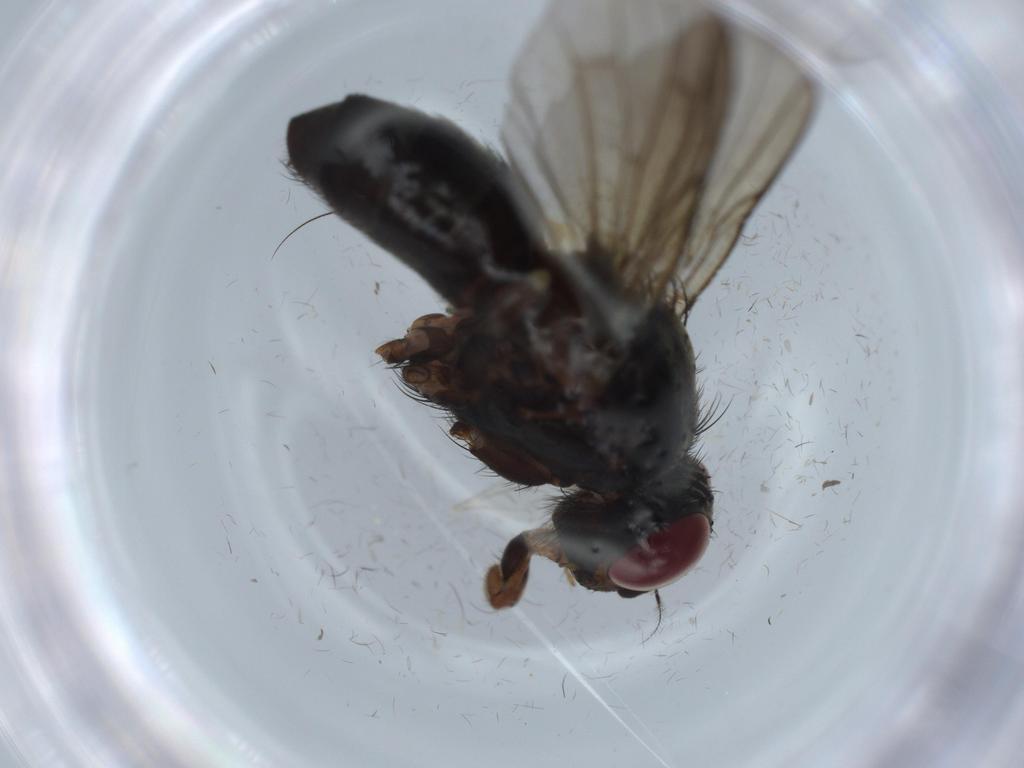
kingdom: Animalia
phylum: Arthropoda
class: Insecta
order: Diptera
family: Calliphoridae
